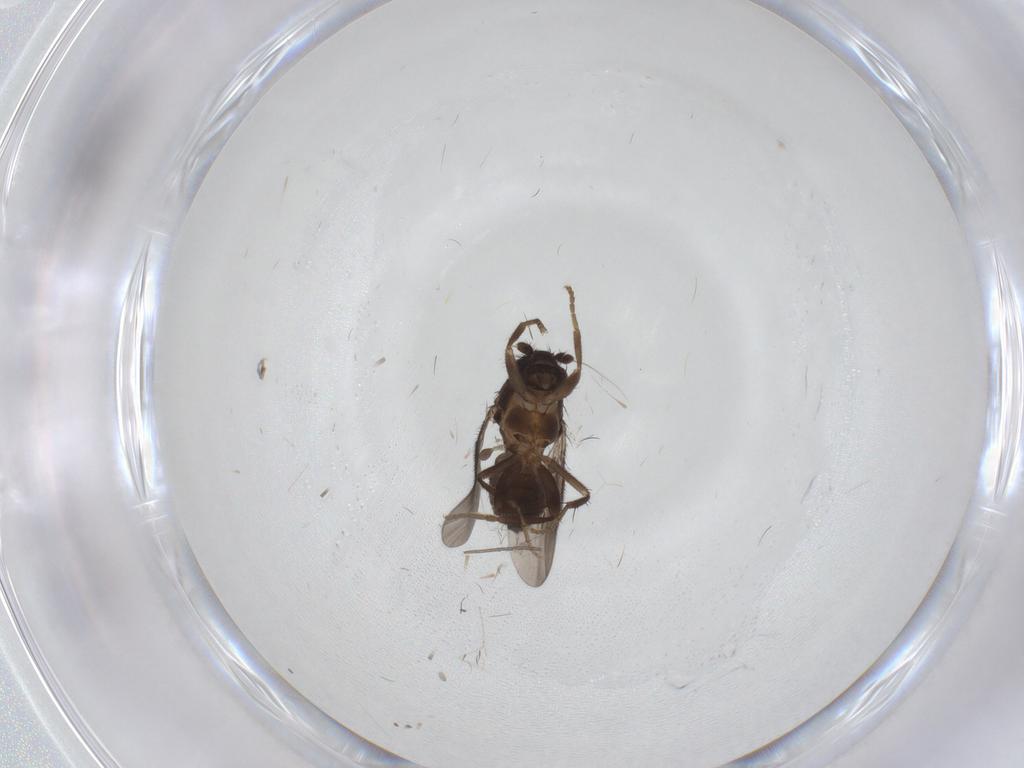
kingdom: Animalia
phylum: Arthropoda
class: Insecta
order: Diptera
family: Sphaeroceridae
